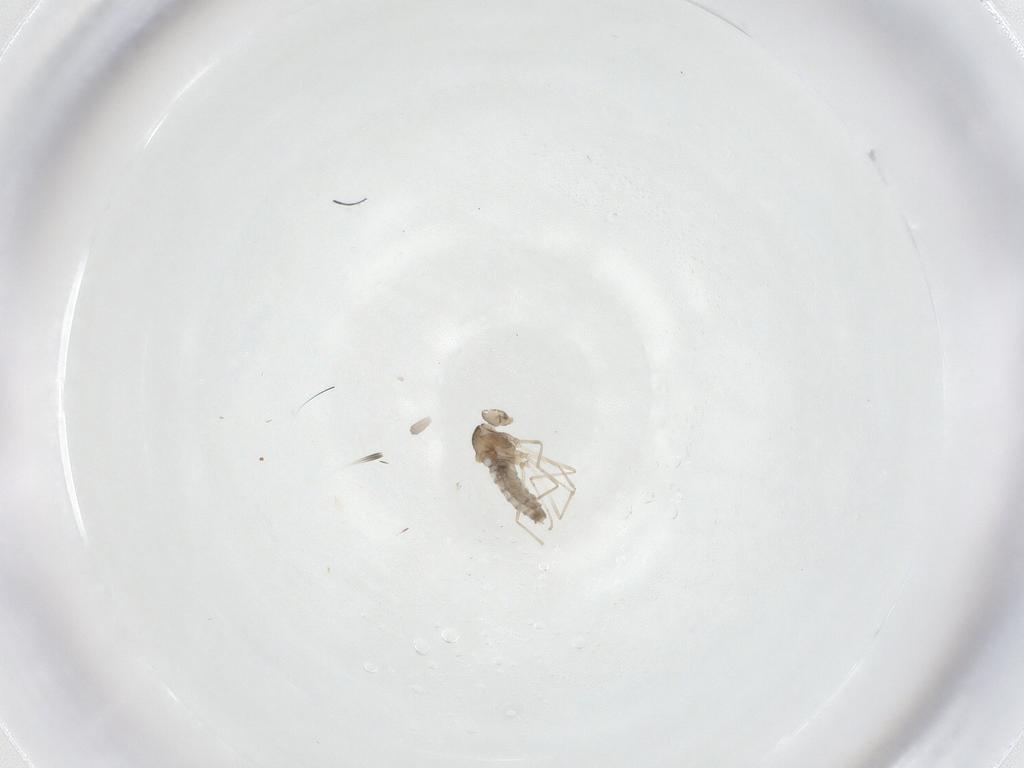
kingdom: Animalia
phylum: Arthropoda
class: Insecta
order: Diptera
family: Cecidomyiidae
